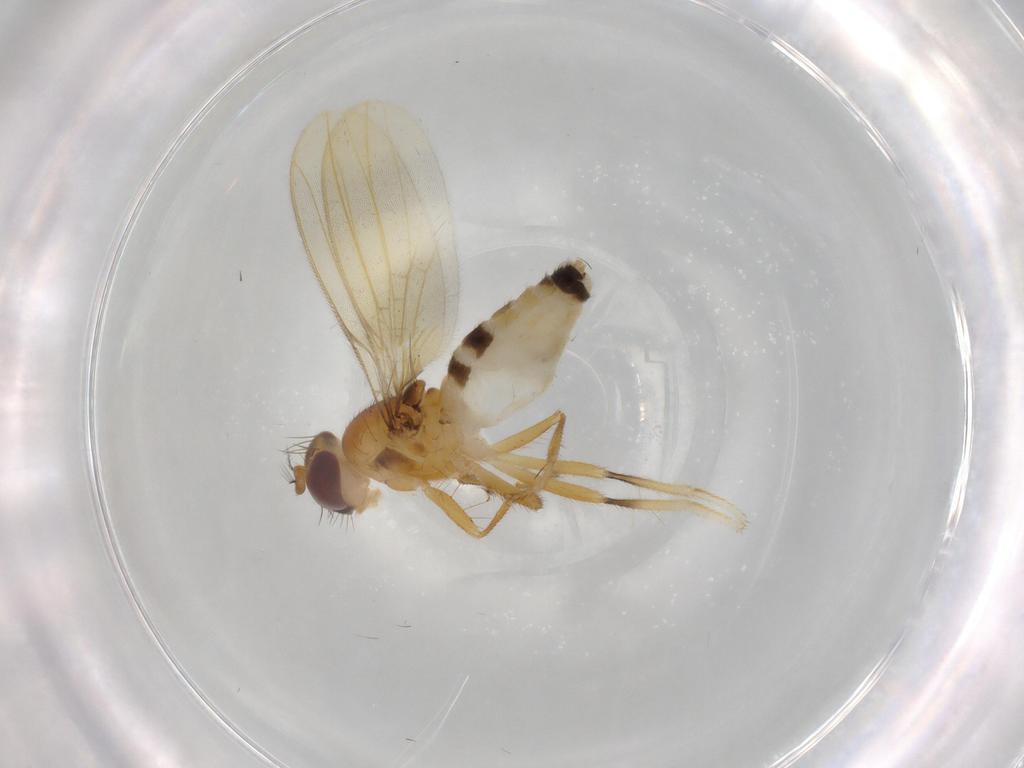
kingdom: Animalia
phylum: Arthropoda
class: Insecta
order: Diptera
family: Periscelididae
